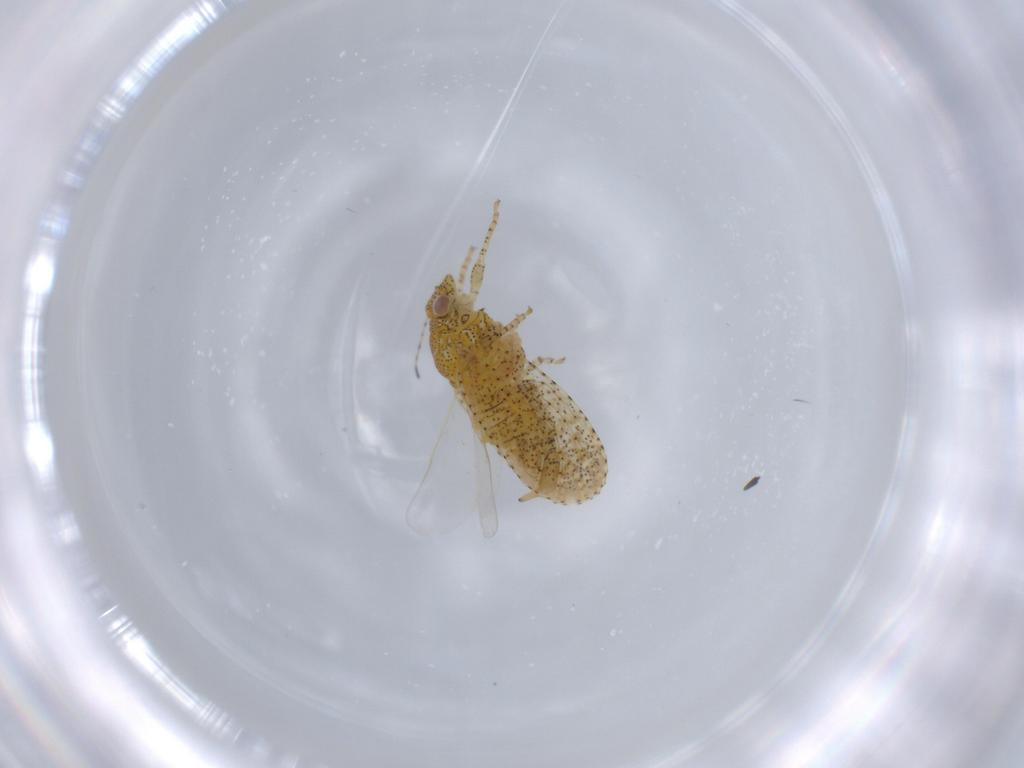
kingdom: Animalia
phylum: Arthropoda
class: Insecta
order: Hemiptera
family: Psyllidae
